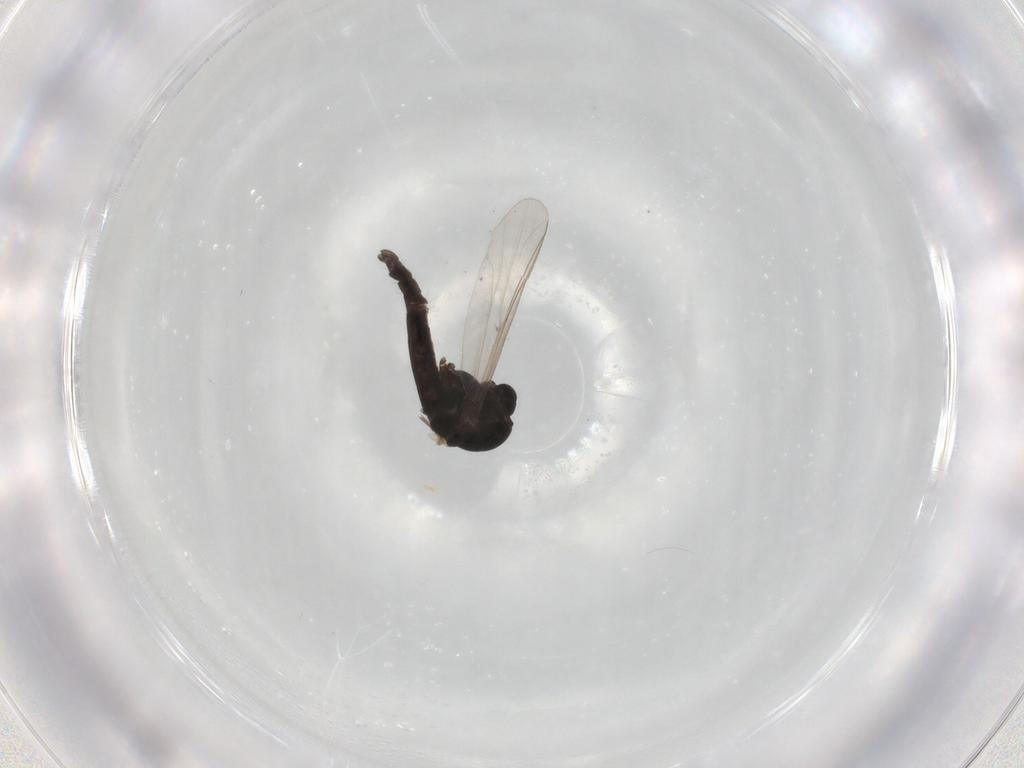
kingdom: Animalia
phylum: Arthropoda
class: Insecta
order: Diptera
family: Chironomidae
